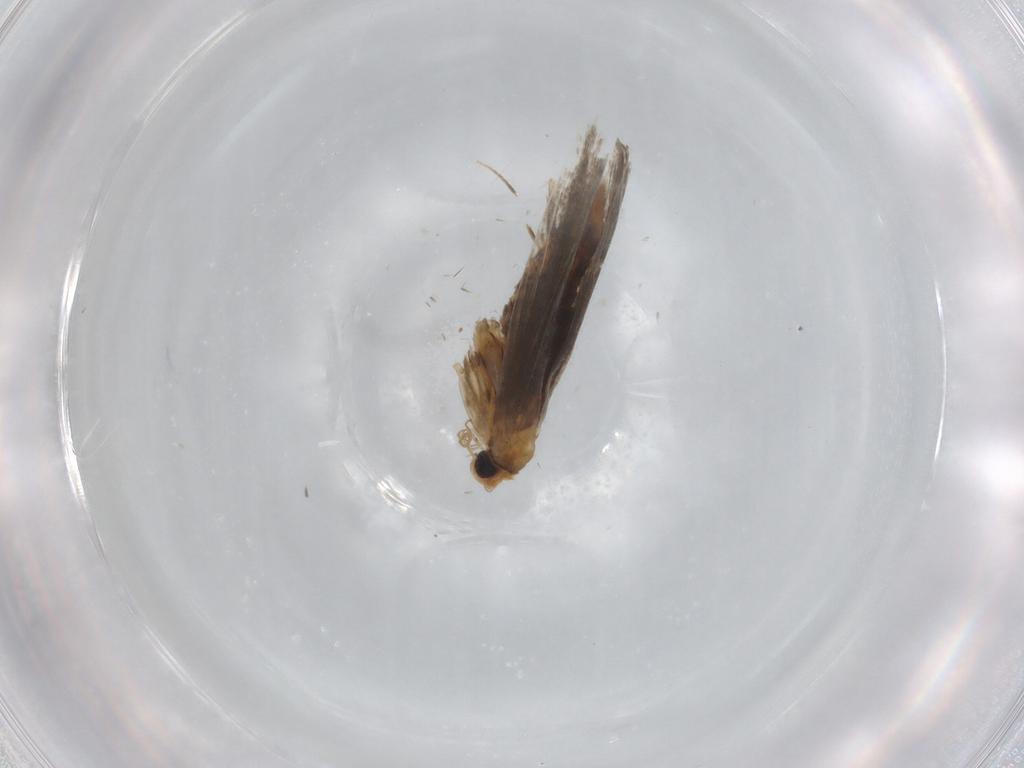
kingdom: Animalia
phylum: Arthropoda
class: Insecta
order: Lepidoptera
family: Gracillariidae
